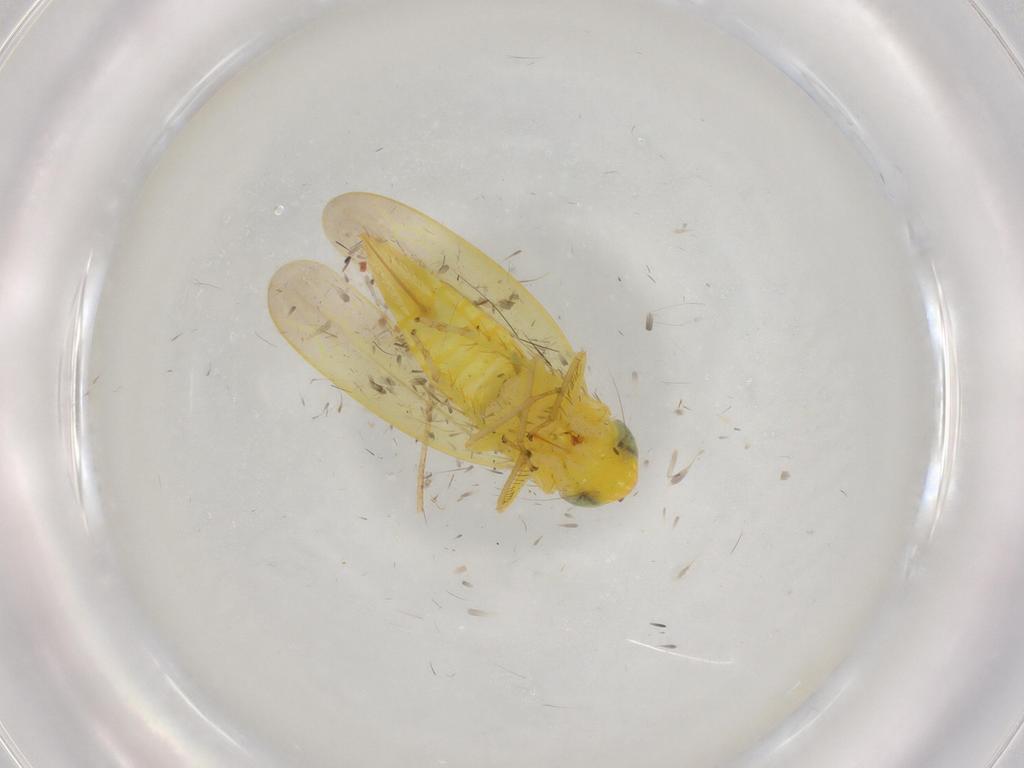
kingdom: Animalia
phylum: Arthropoda
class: Insecta
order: Hemiptera
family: Cicadellidae
